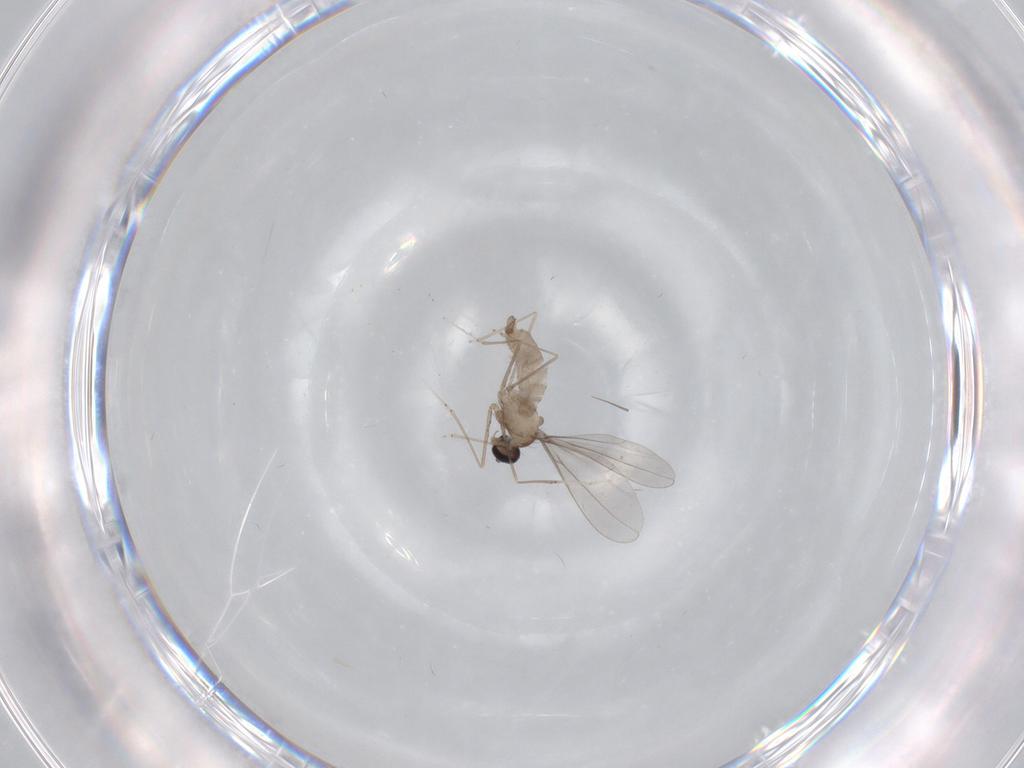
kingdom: Animalia
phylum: Arthropoda
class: Insecta
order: Diptera
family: Cecidomyiidae
